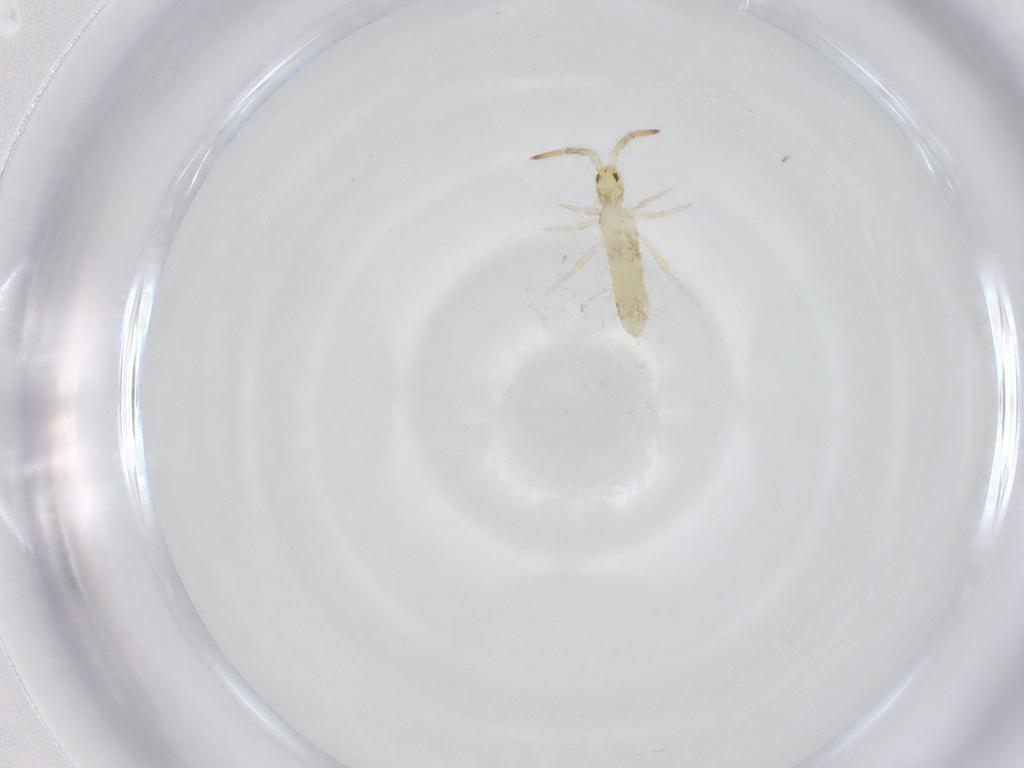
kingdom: Animalia
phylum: Arthropoda
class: Collembola
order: Entomobryomorpha
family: Entomobryidae
